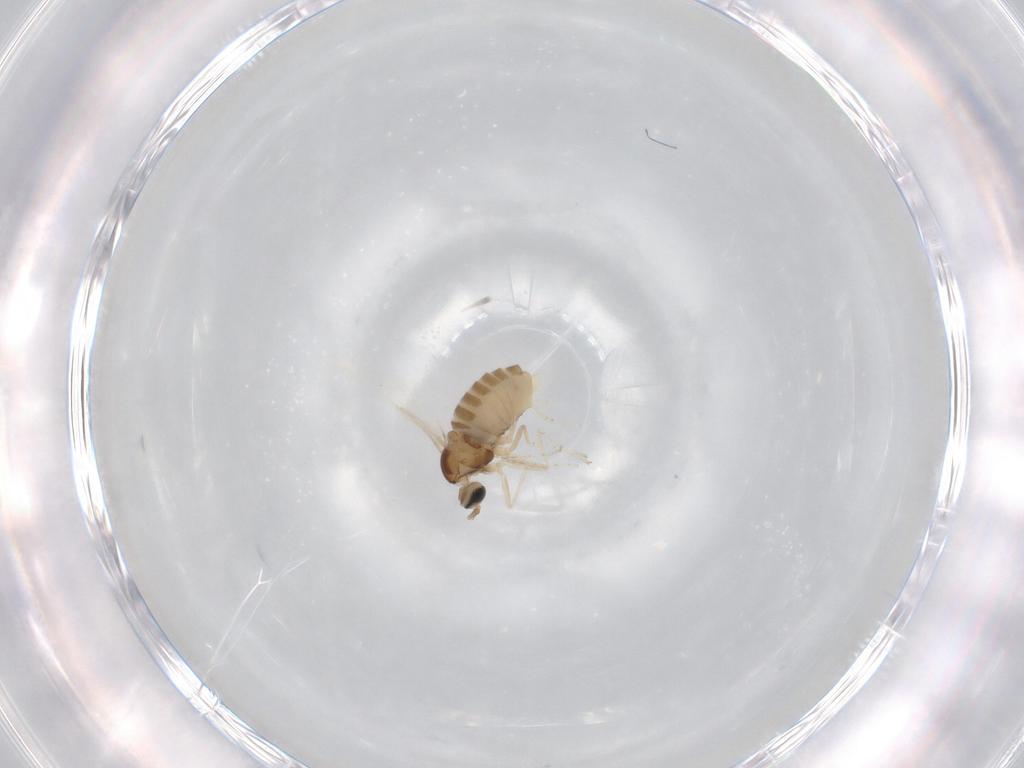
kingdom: Animalia
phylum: Arthropoda
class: Insecta
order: Diptera
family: Cecidomyiidae
